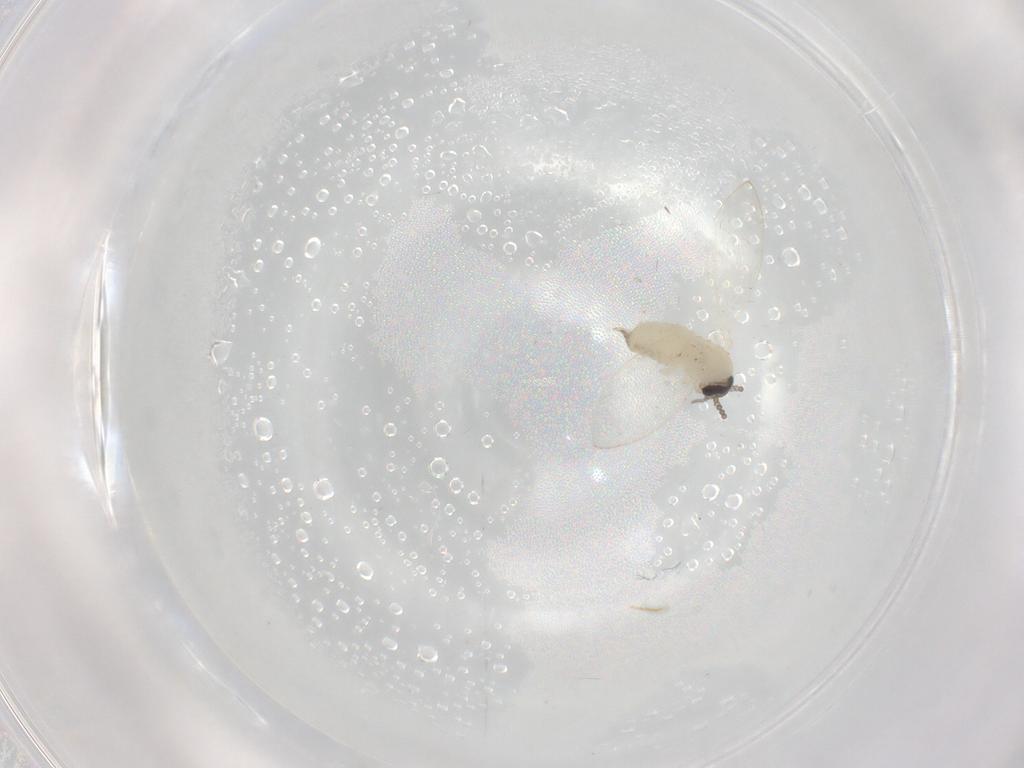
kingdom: Animalia
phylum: Arthropoda
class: Insecta
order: Diptera
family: Psychodidae
